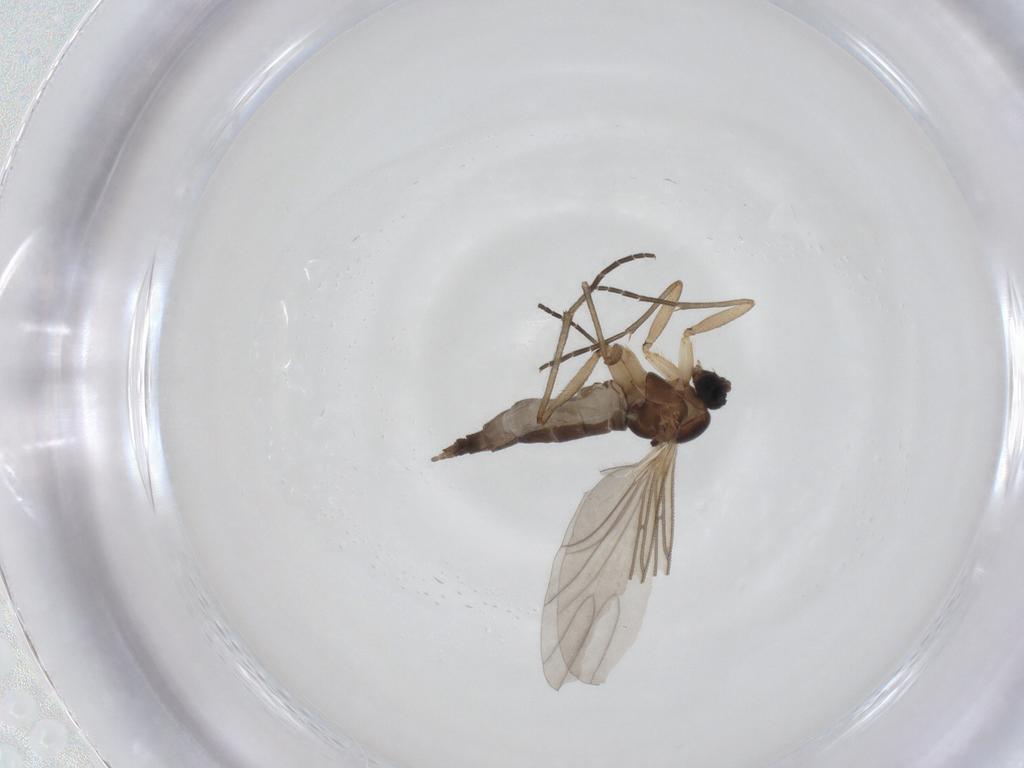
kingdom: Animalia
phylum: Arthropoda
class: Insecta
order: Diptera
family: Sciaridae
